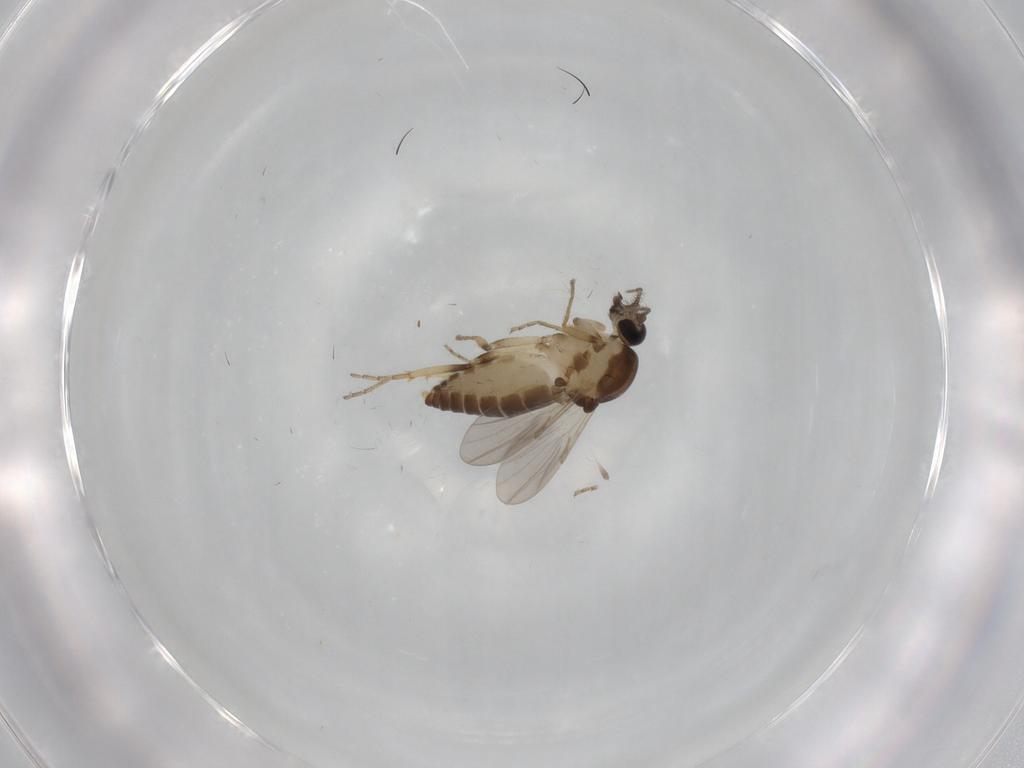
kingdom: Animalia
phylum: Arthropoda
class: Insecta
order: Diptera
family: Ceratopogonidae
